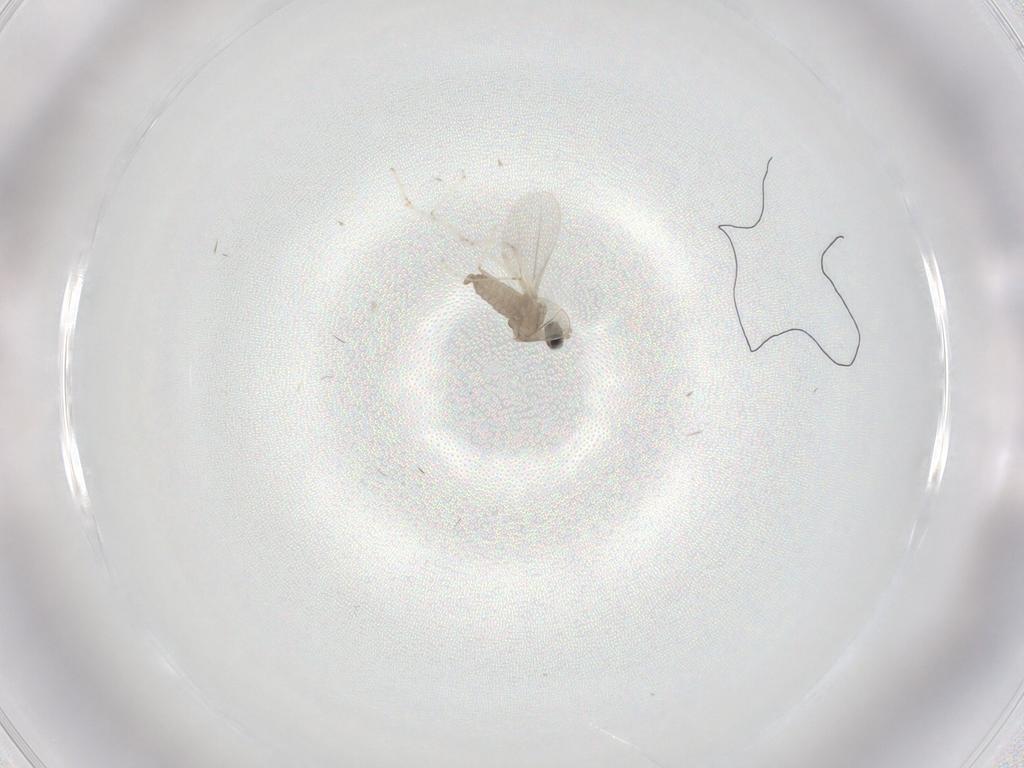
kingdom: Animalia
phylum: Arthropoda
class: Insecta
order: Diptera
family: Cecidomyiidae
